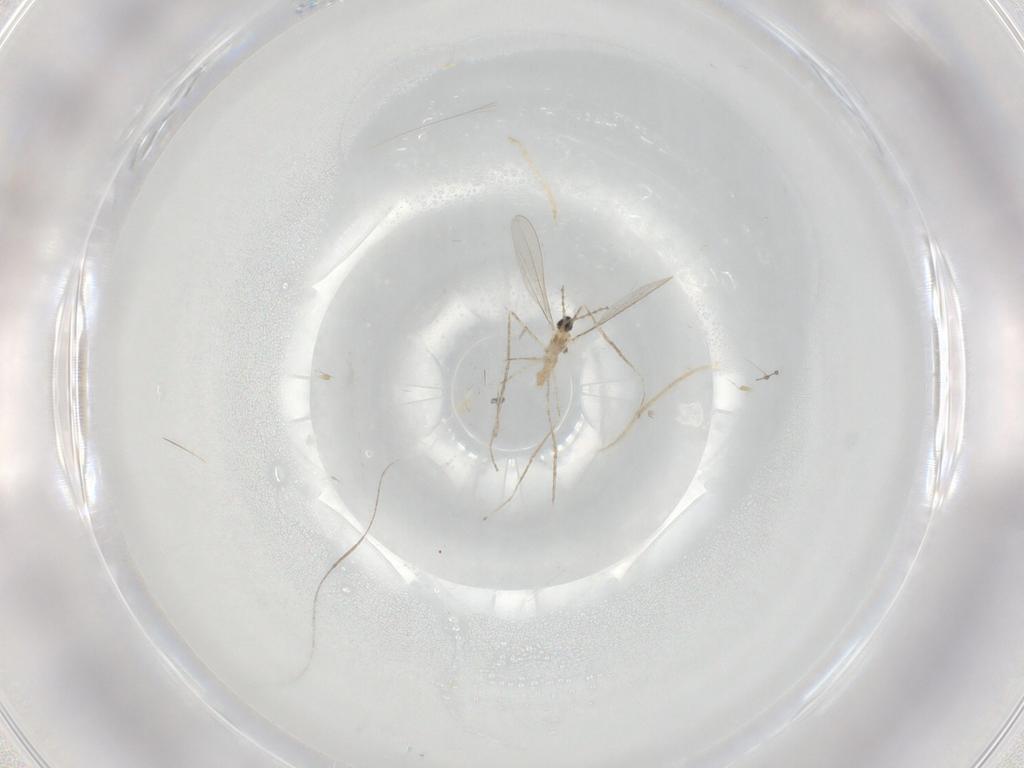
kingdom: Animalia
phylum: Arthropoda
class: Insecta
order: Diptera
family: Cecidomyiidae
